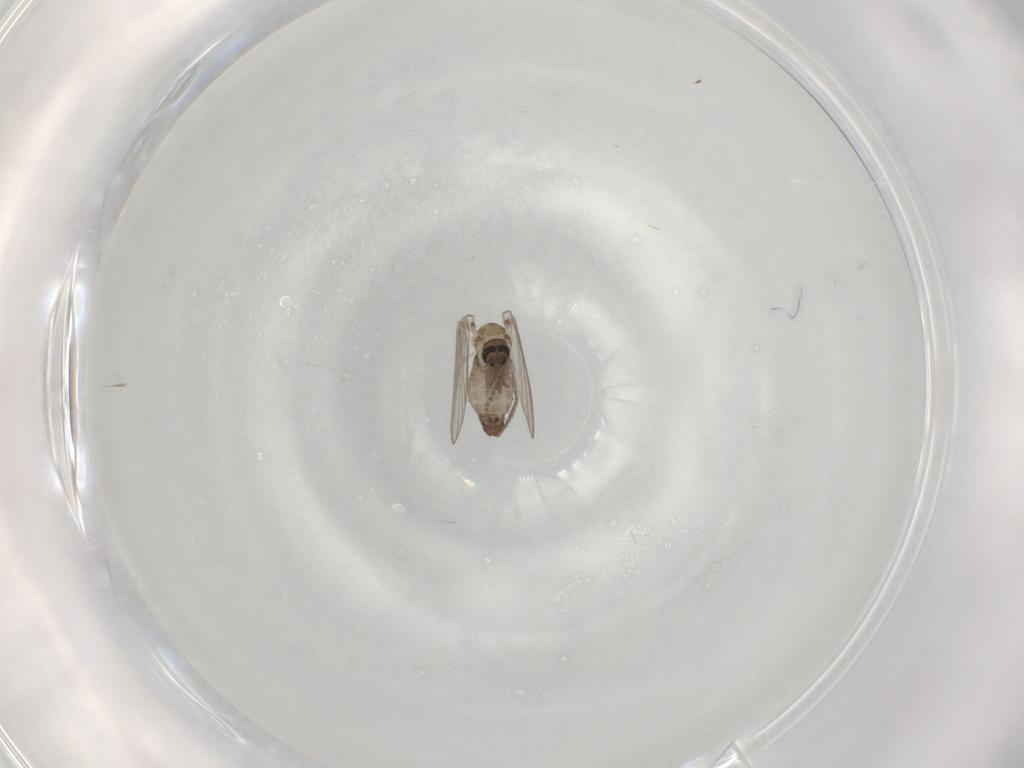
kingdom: Animalia
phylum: Arthropoda
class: Insecta
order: Diptera
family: Psychodidae
